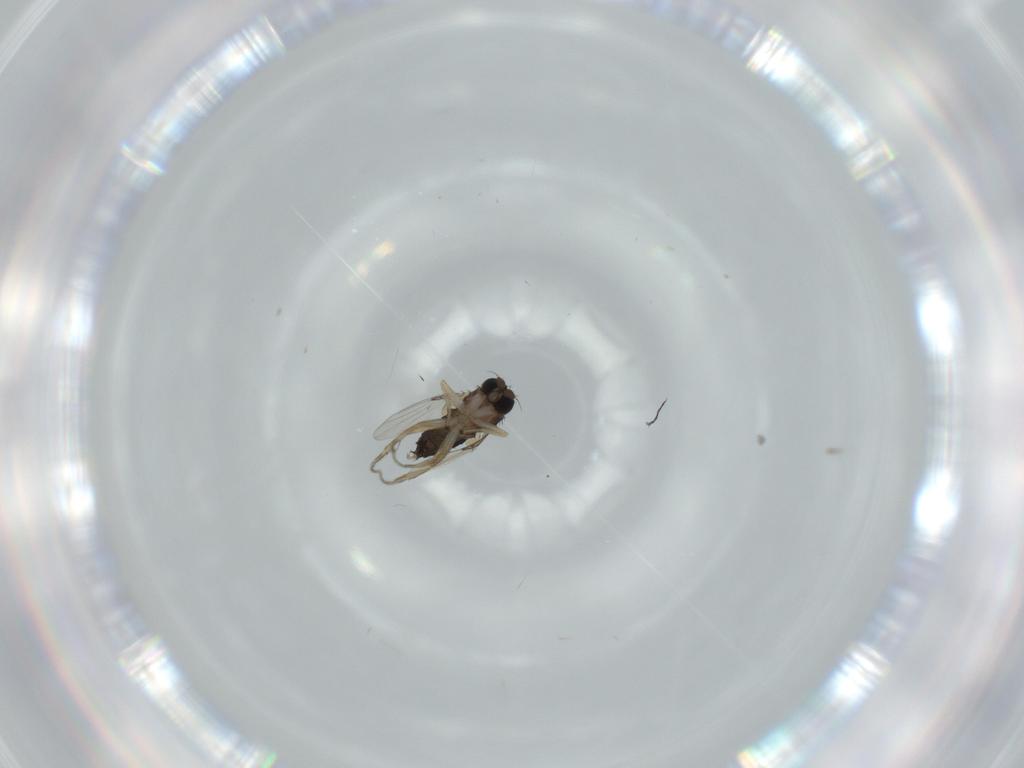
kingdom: Animalia
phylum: Arthropoda
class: Insecta
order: Diptera
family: Phoridae
